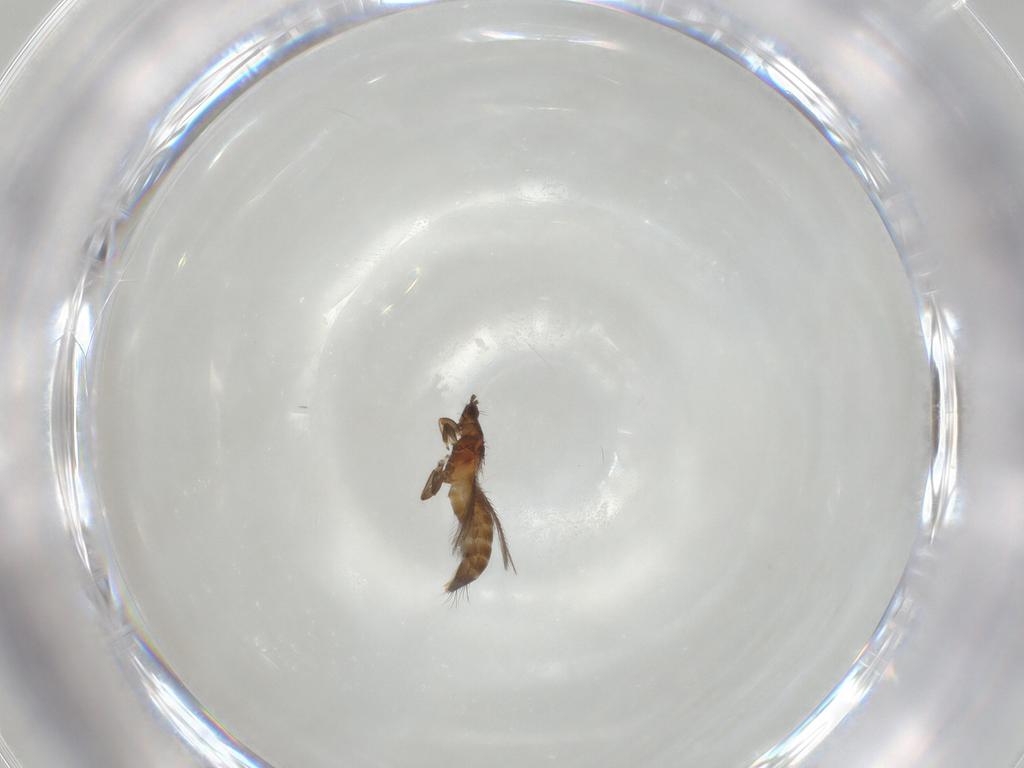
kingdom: Animalia
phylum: Arthropoda
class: Insecta
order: Thysanoptera
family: Thripidae
